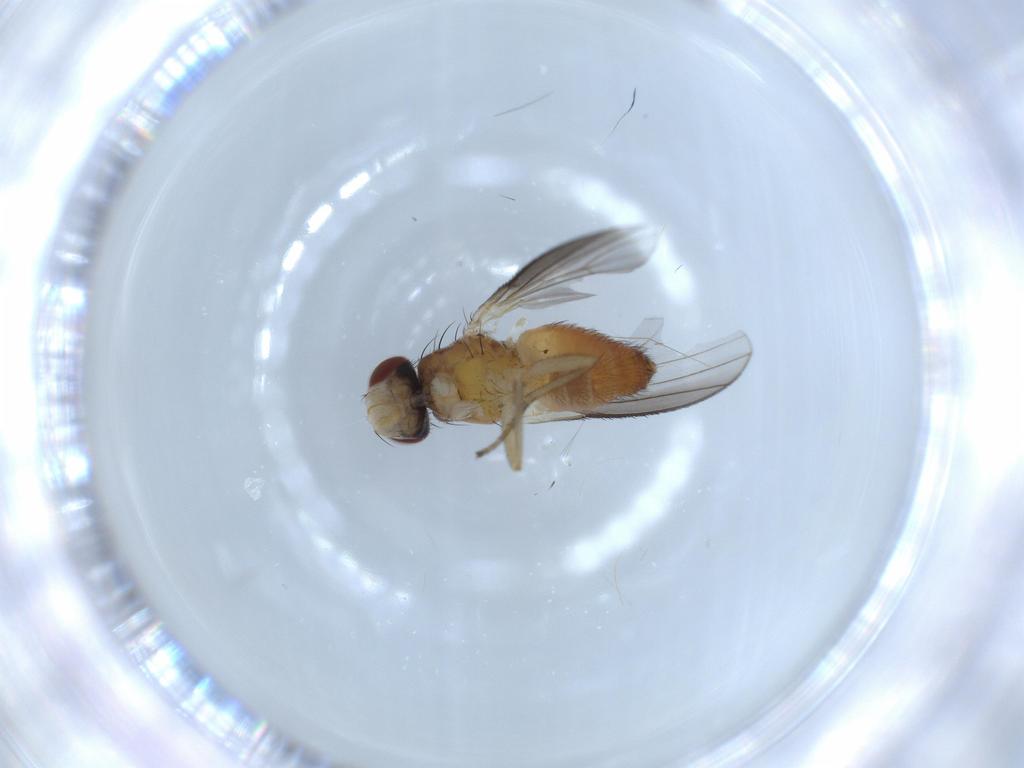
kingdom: Animalia
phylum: Arthropoda
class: Insecta
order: Diptera
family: Heleomyzidae
